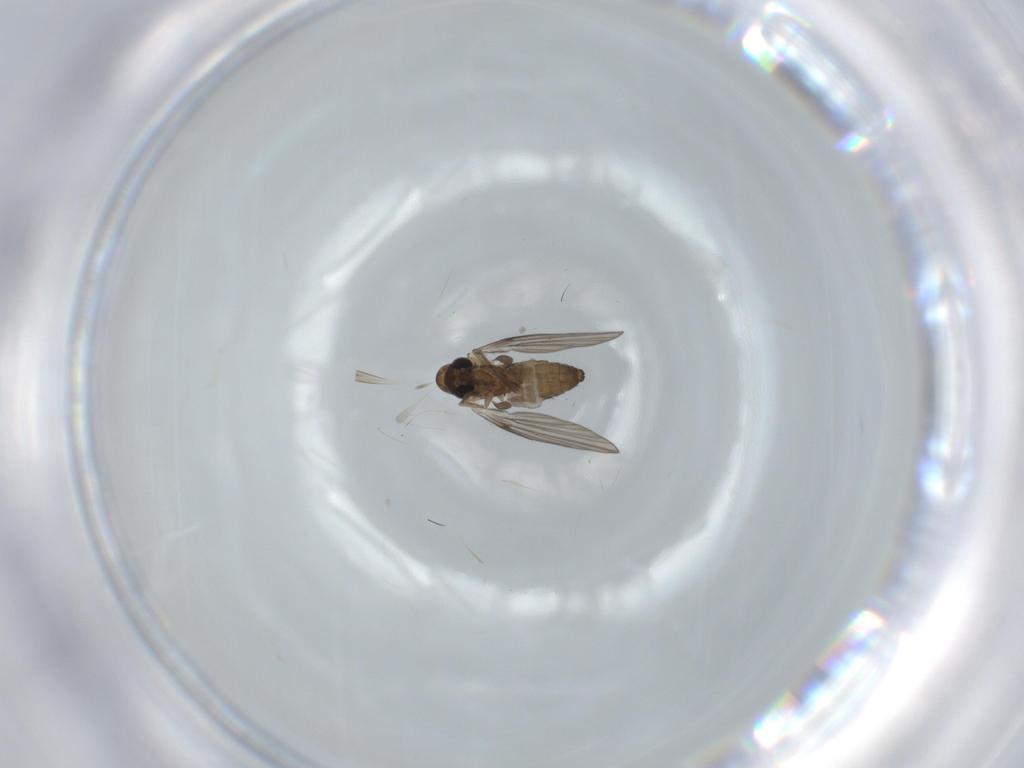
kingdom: Animalia
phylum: Arthropoda
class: Insecta
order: Diptera
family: Psychodidae
